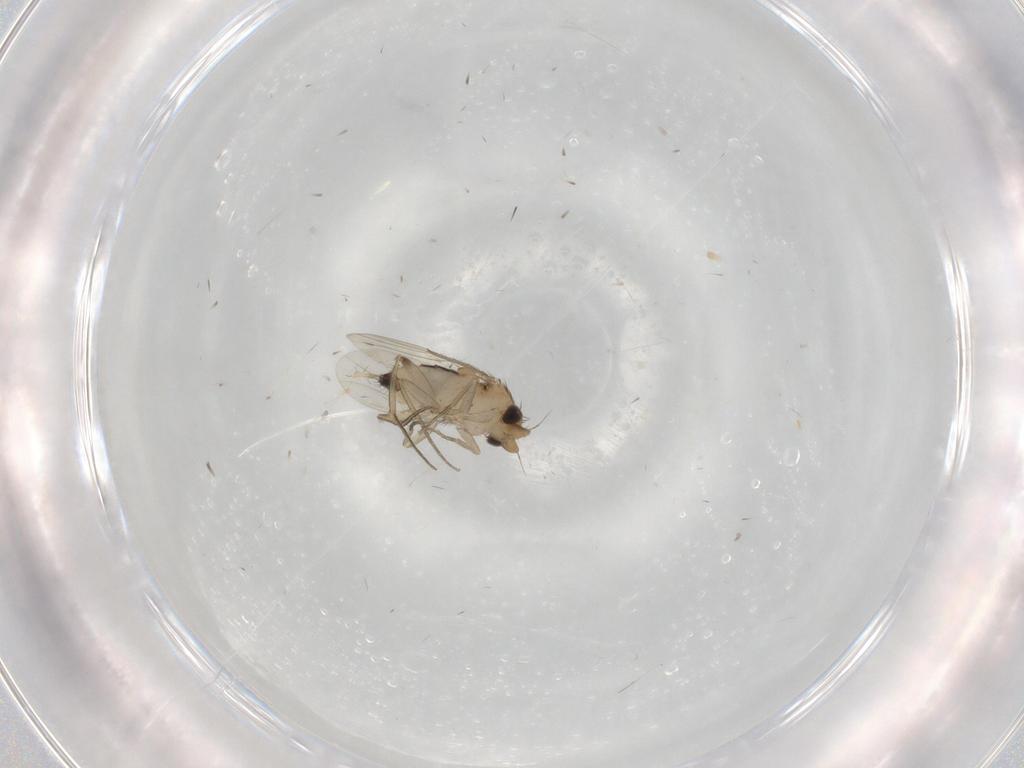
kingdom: Animalia
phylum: Arthropoda
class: Insecta
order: Diptera
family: Phoridae
